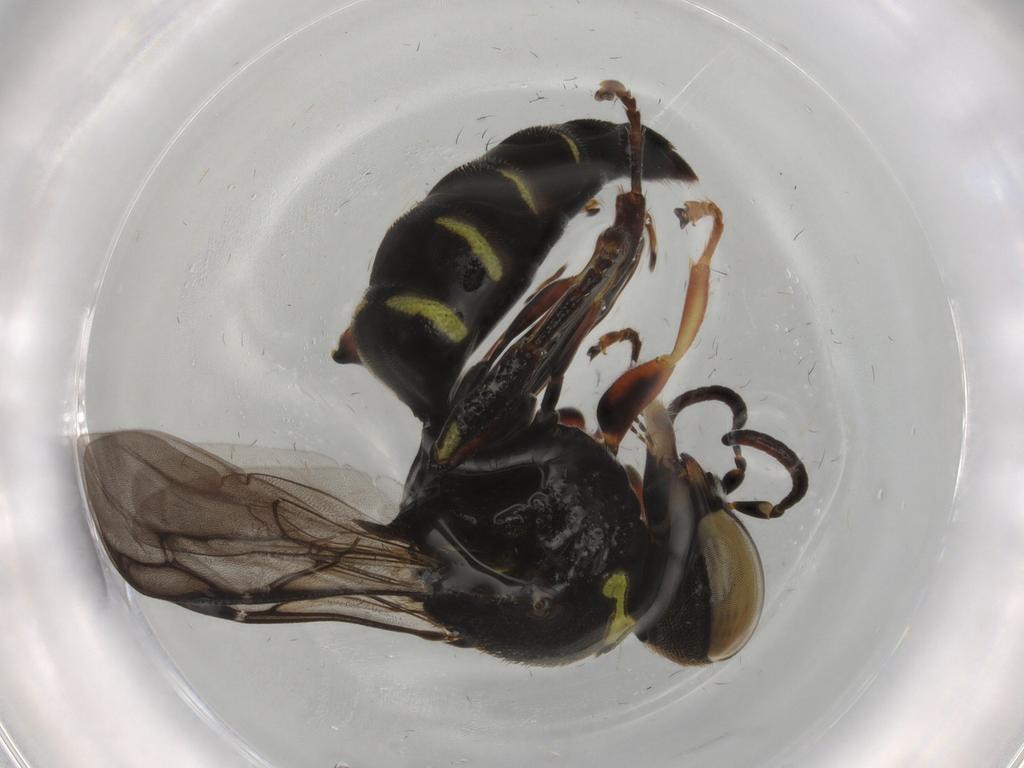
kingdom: Animalia
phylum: Arthropoda
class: Insecta
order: Hymenoptera
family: Crabronidae
